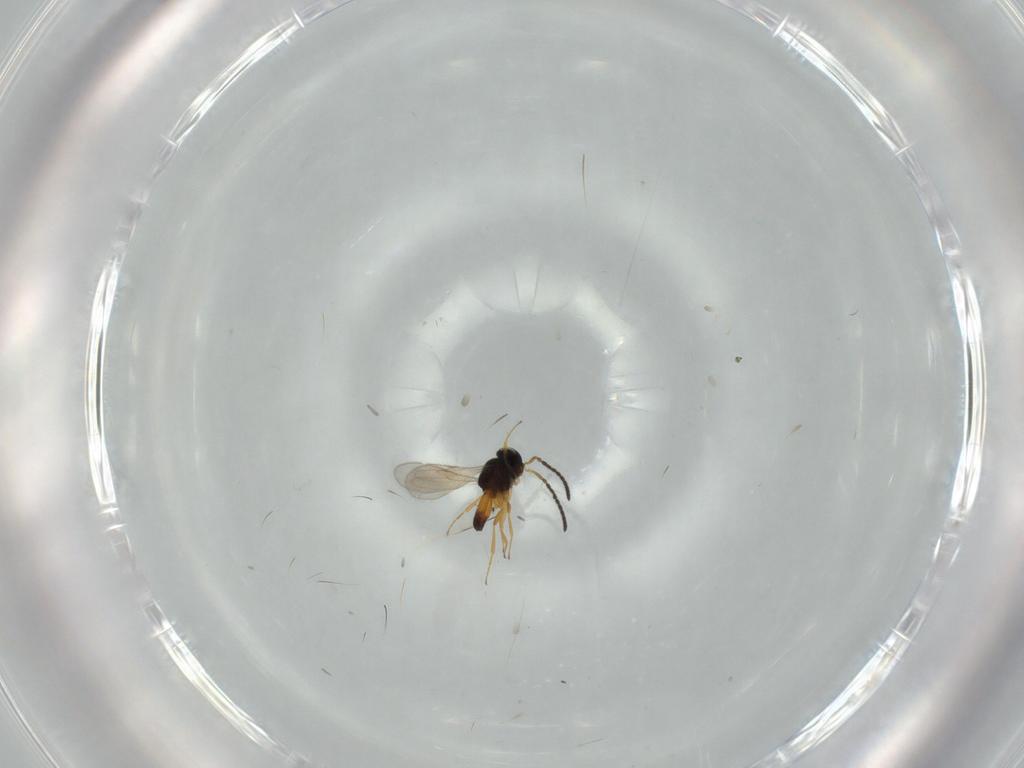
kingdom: Animalia
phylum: Arthropoda
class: Insecta
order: Hymenoptera
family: Scelionidae
